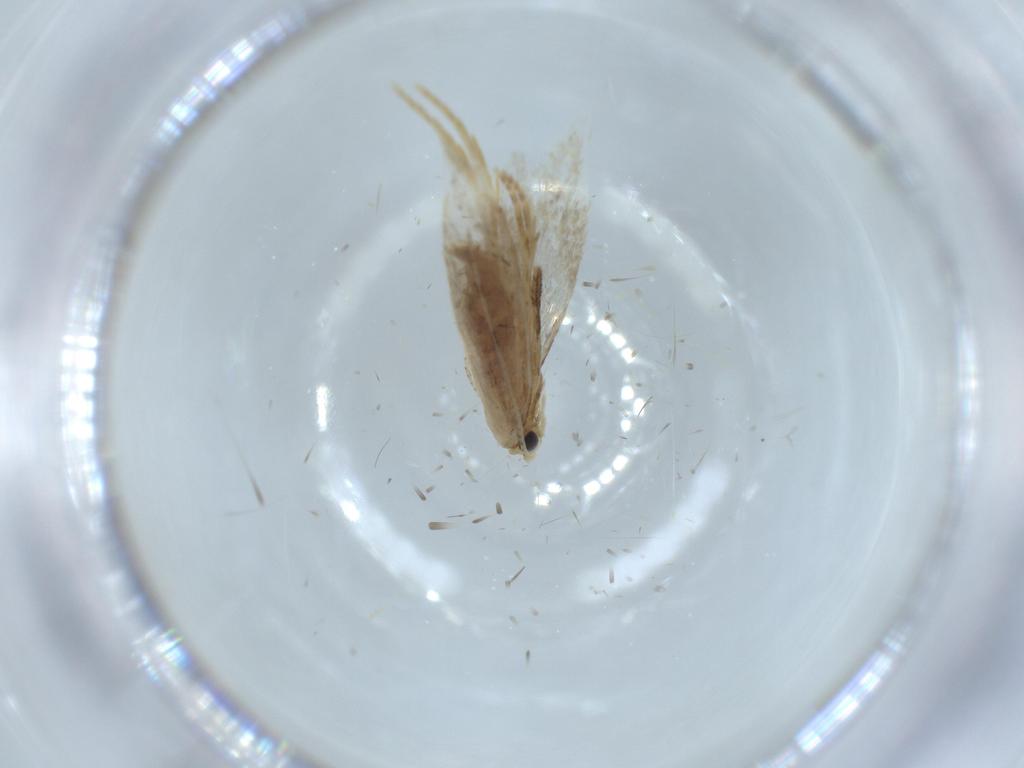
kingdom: Animalia
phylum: Arthropoda
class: Insecta
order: Lepidoptera
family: Dryadaulidae
